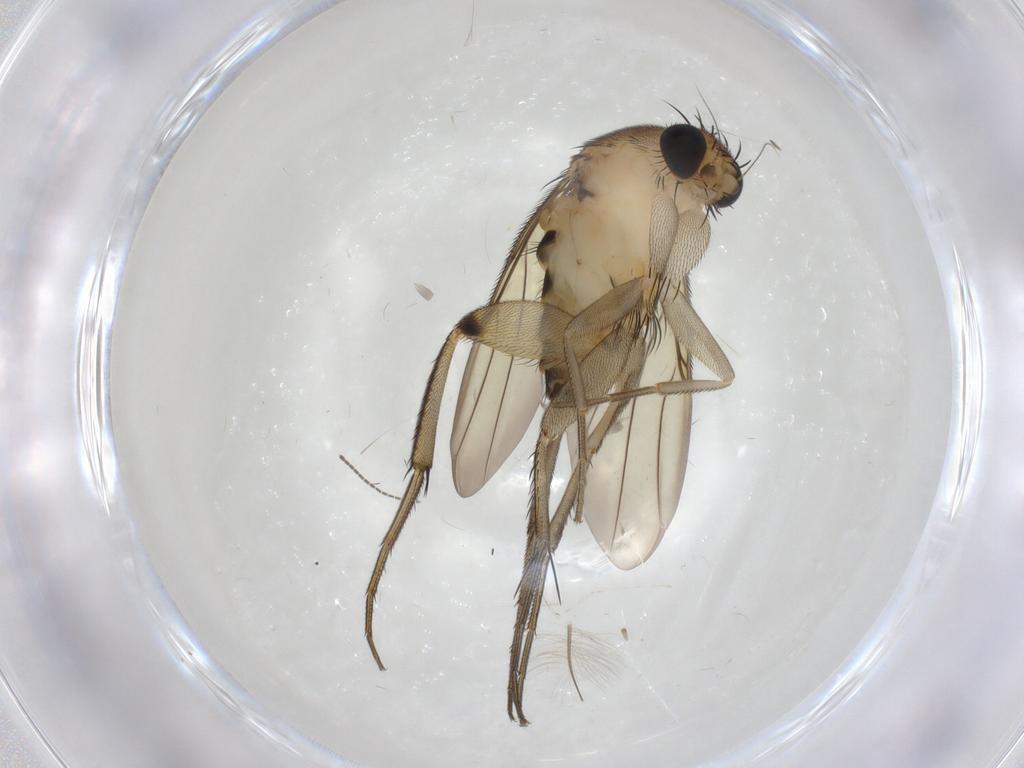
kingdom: Animalia
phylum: Arthropoda
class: Insecta
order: Diptera
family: Phoridae
